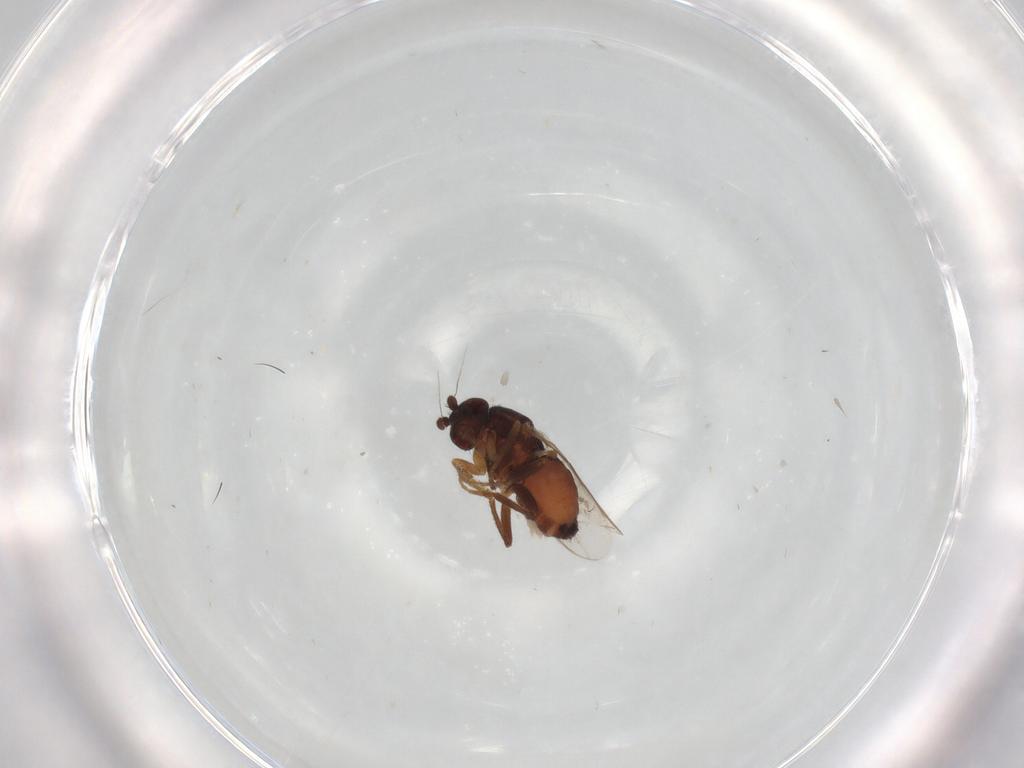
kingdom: Animalia
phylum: Arthropoda
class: Insecta
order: Diptera
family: Sphaeroceridae
